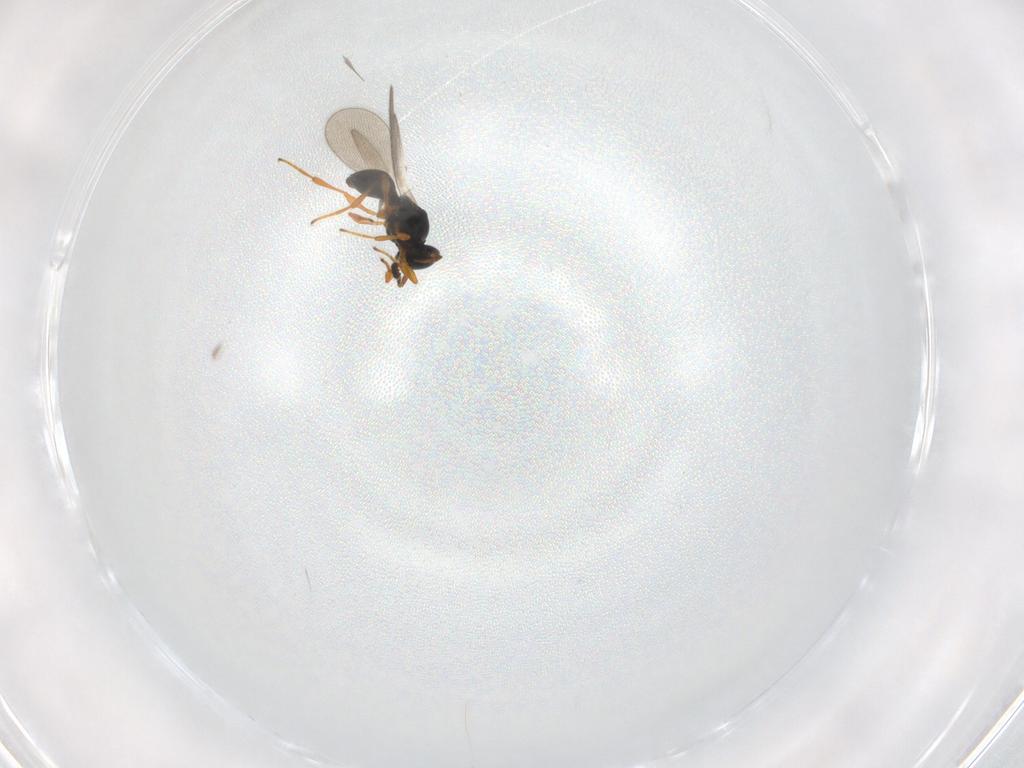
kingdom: Animalia
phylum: Arthropoda
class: Insecta
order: Hymenoptera
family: Platygastridae
